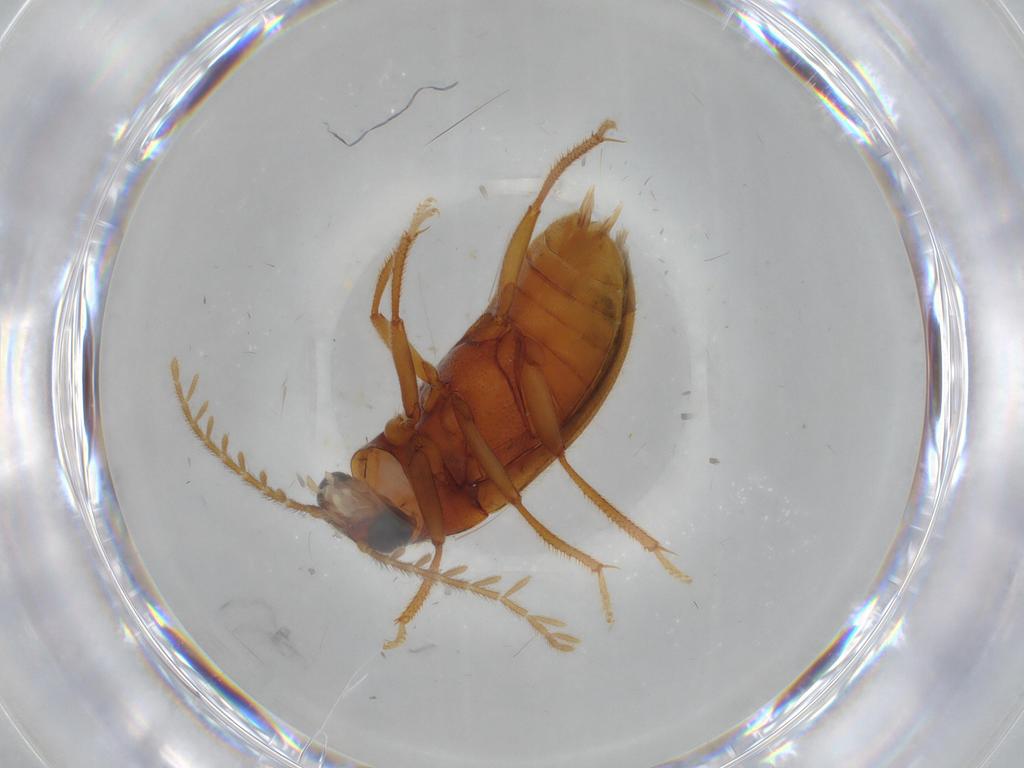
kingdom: Animalia
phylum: Arthropoda
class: Insecta
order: Coleoptera
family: Ptilodactylidae
